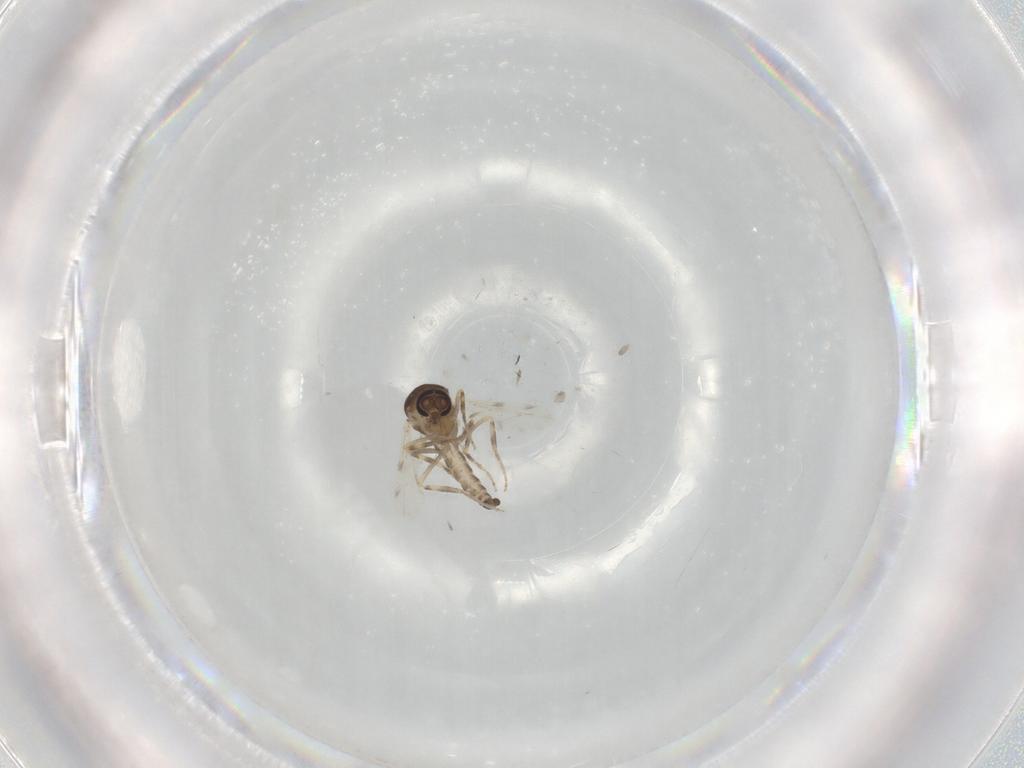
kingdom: Animalia
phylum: Arthropoda
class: Insecta
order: Diptera
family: Ceratopogonidae
